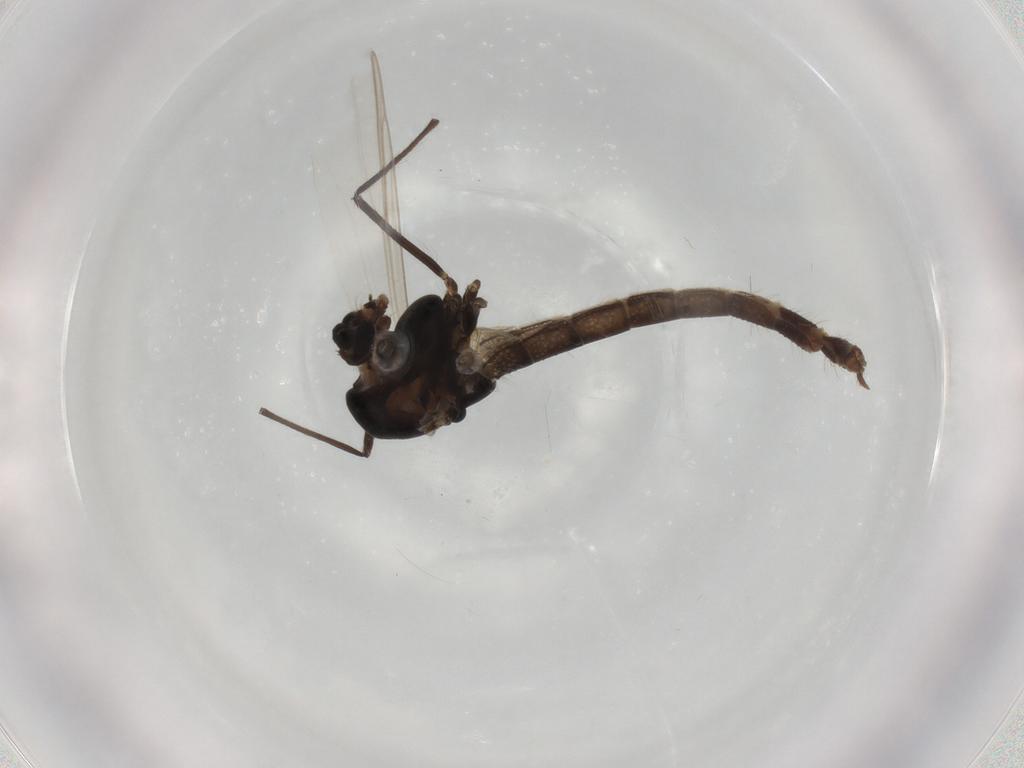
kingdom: Animalia
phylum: Arthropoda
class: Insecta
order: Diptera
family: Chironomidae
